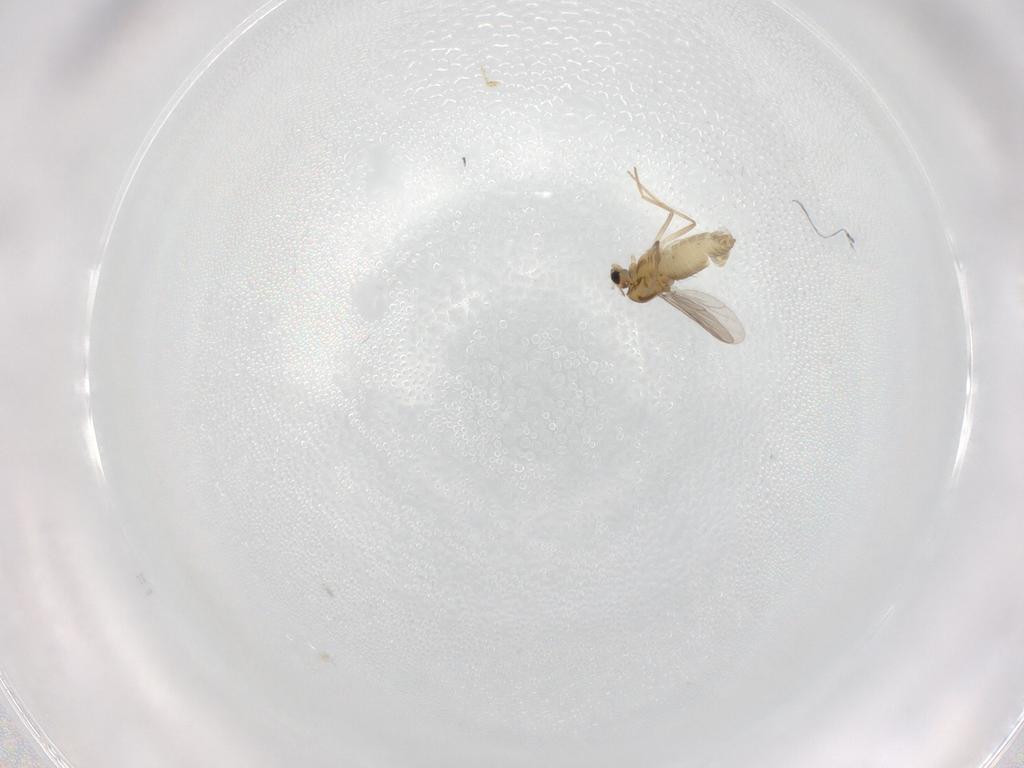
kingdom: Animalia
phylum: Arthropoda
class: Insecta
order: Diptera
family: Chironomidae
